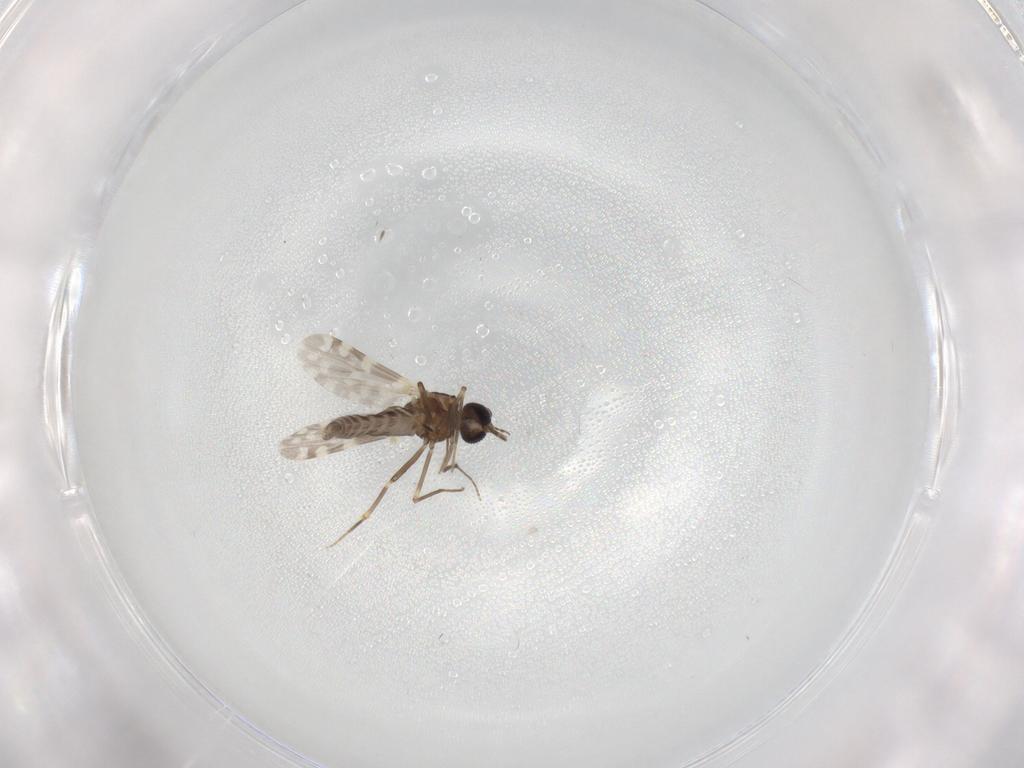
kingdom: Animalia
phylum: Arthropoda
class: Insecta
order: Diptera
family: Ceratopogonidae
